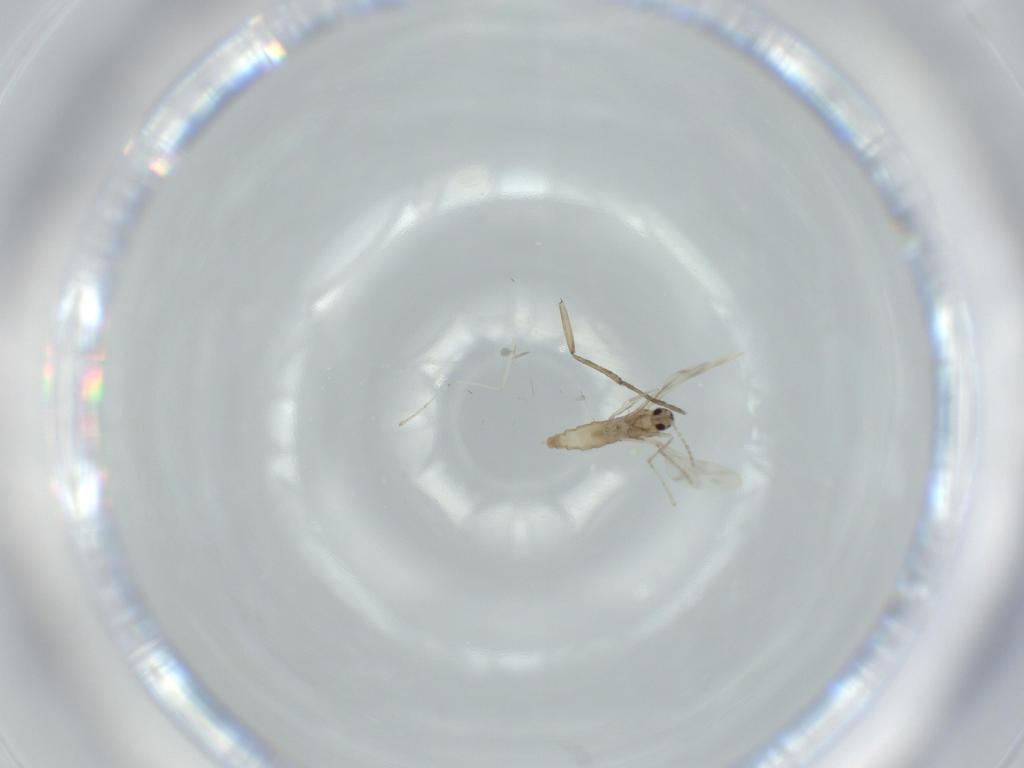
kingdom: Animalia
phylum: Arthropoda
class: Insecta
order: Diptera
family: Psychodidae
